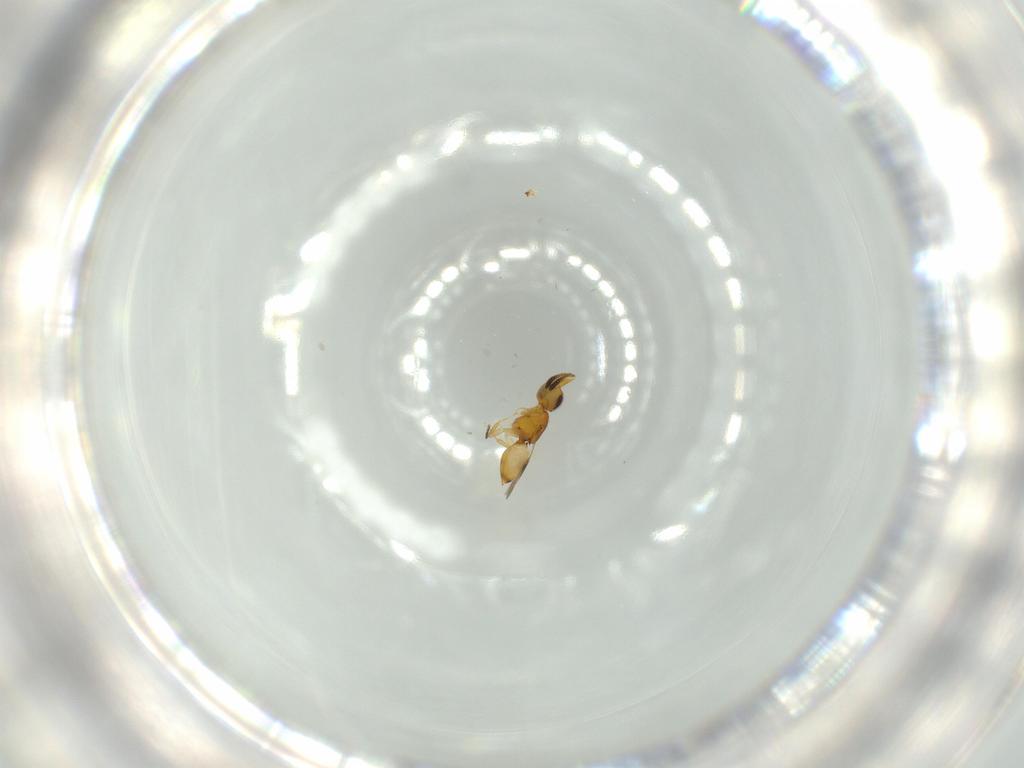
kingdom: Animalia
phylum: Arthropoda
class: Insecta
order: Hymenoptera
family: Ceraphronidae
